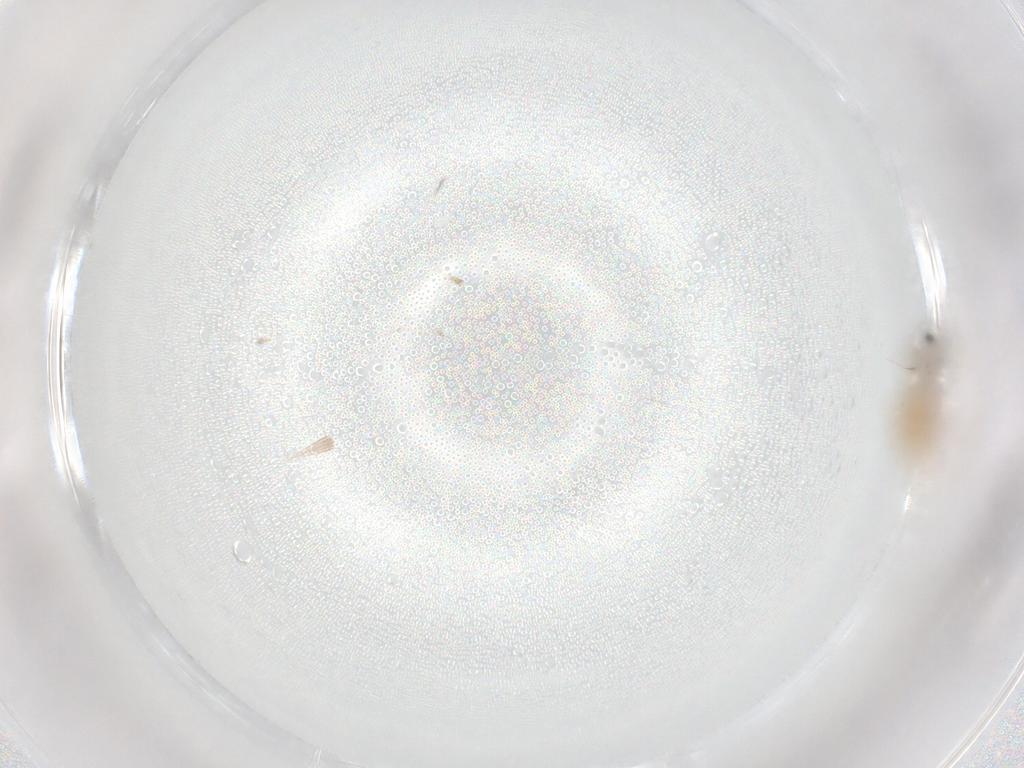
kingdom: Animalia
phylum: Arthropoda
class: Insecta
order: Diptera
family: Cecidomyiidae
